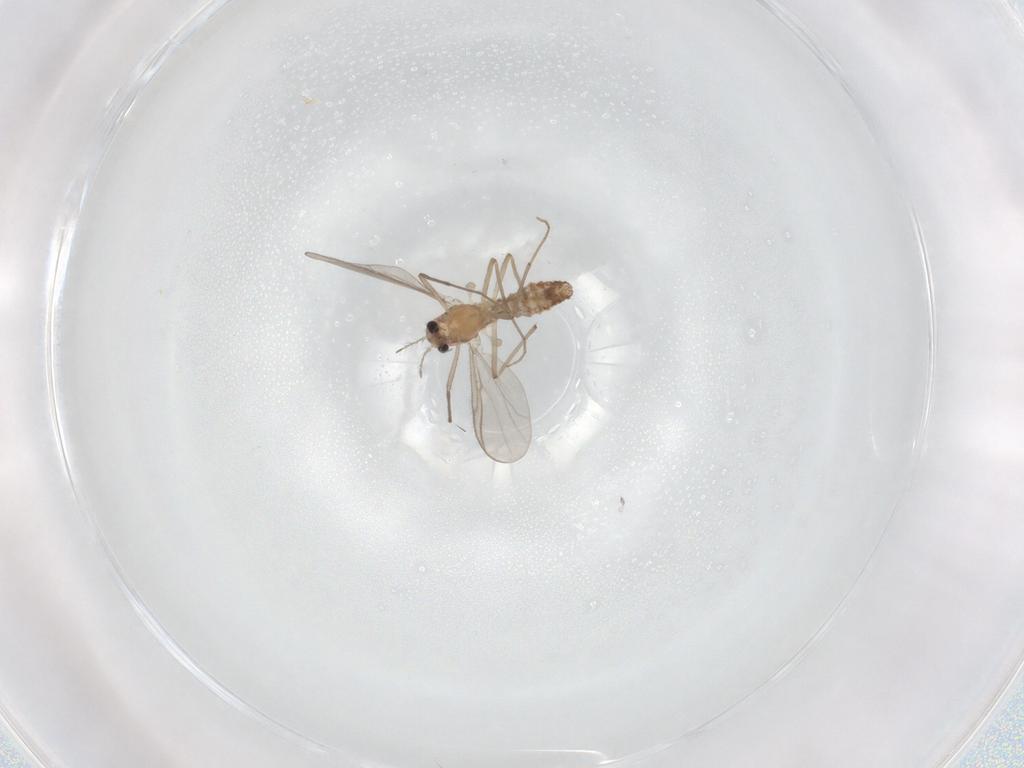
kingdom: Animalia
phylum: Arthropoda
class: Insecta
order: Diptera
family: Sciaridae
